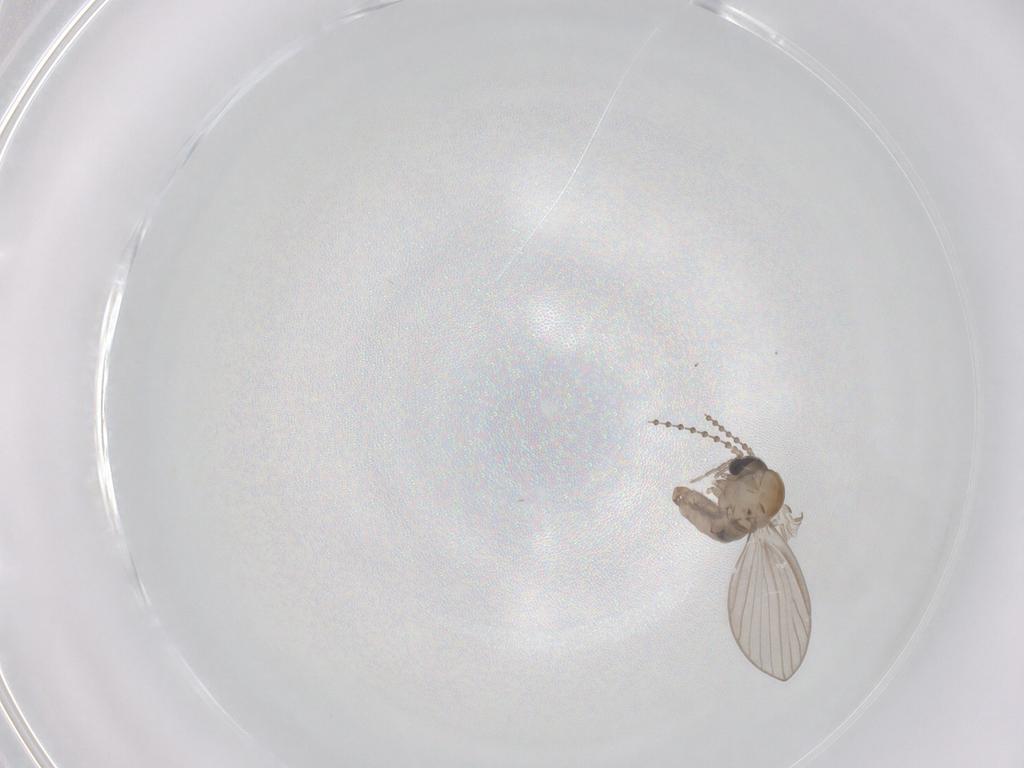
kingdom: Animalia
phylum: Arthropoda
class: Insecta
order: Diptera
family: Psychodidae
